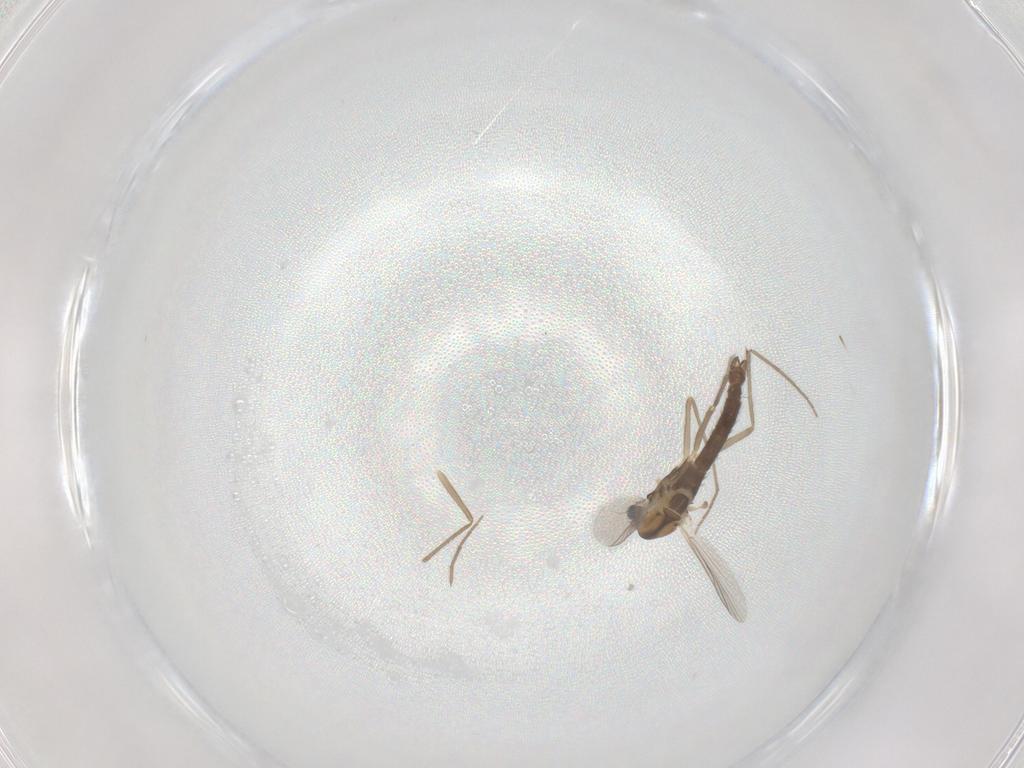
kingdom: Animalia
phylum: Arthropoda
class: Insecta
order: Diptera
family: Chironomidae
